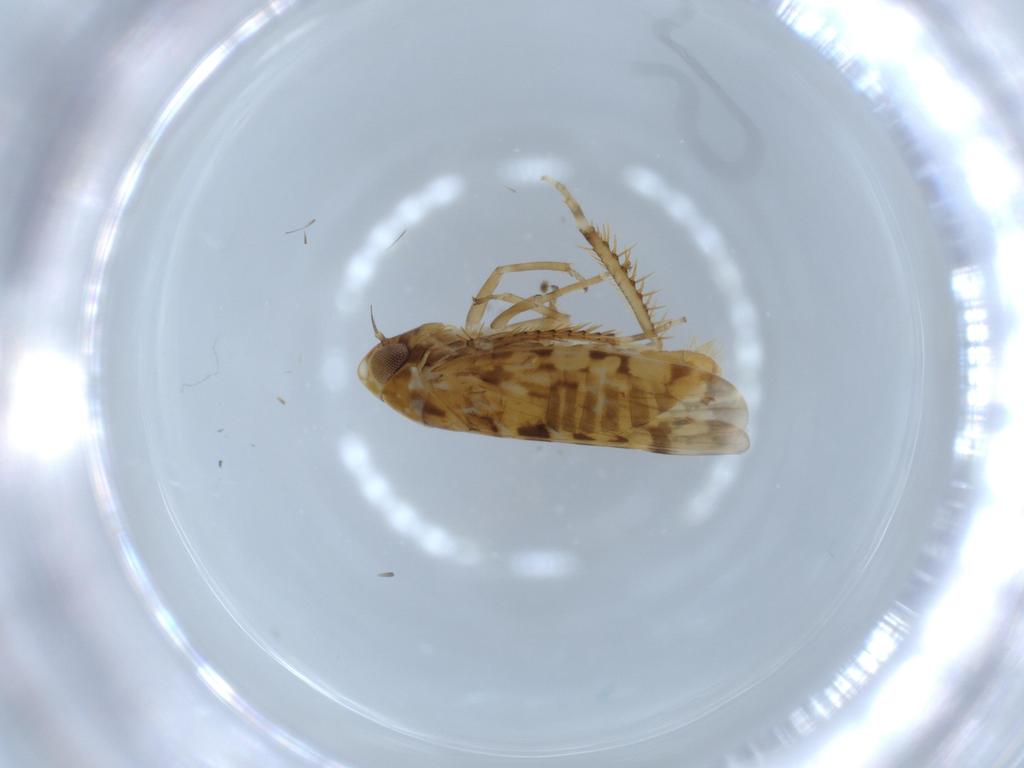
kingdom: Animalia
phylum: Arthropoda
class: Insecta
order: Hemiptera
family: Cicadellidae
